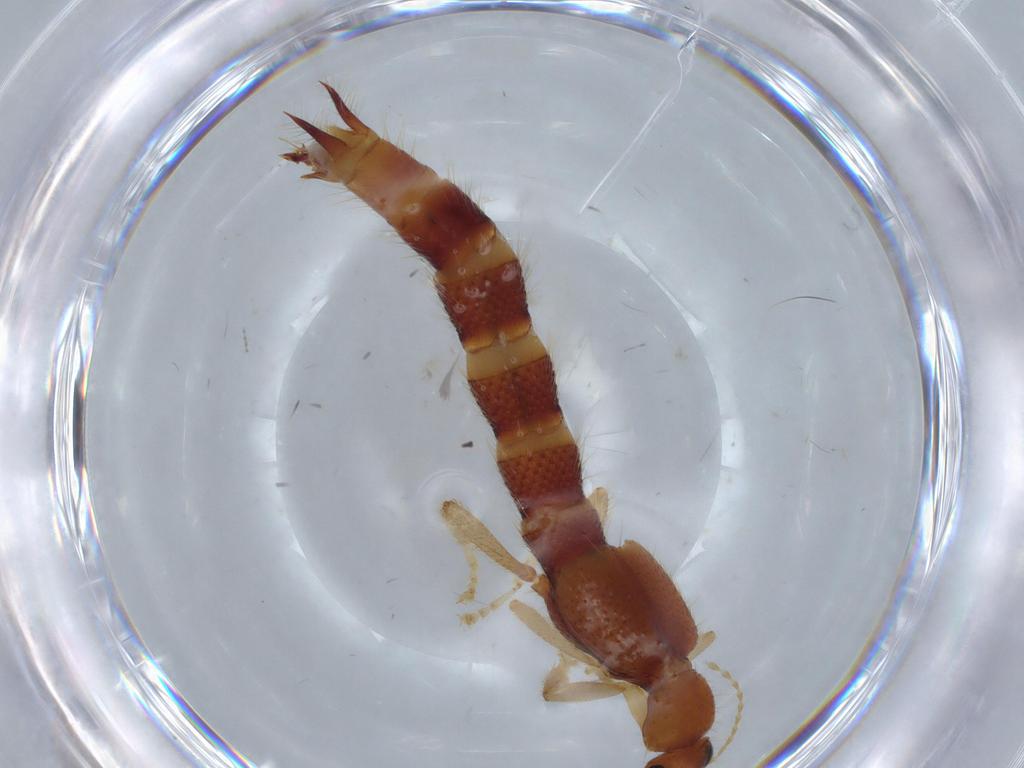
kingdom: Animalia
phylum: Arthropoda
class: Insecta
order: Coleoptera
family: Staphylinidae
